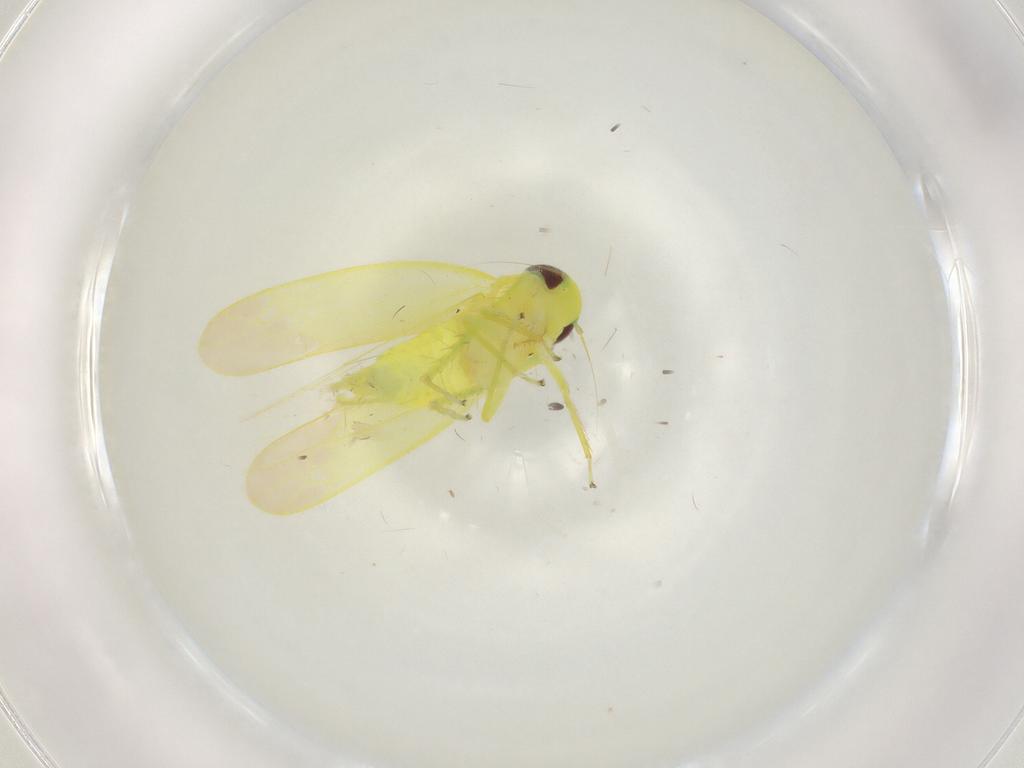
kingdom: Animalia
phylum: Arthropoda
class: Insecta
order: Hemiptera
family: Cicadellidae
